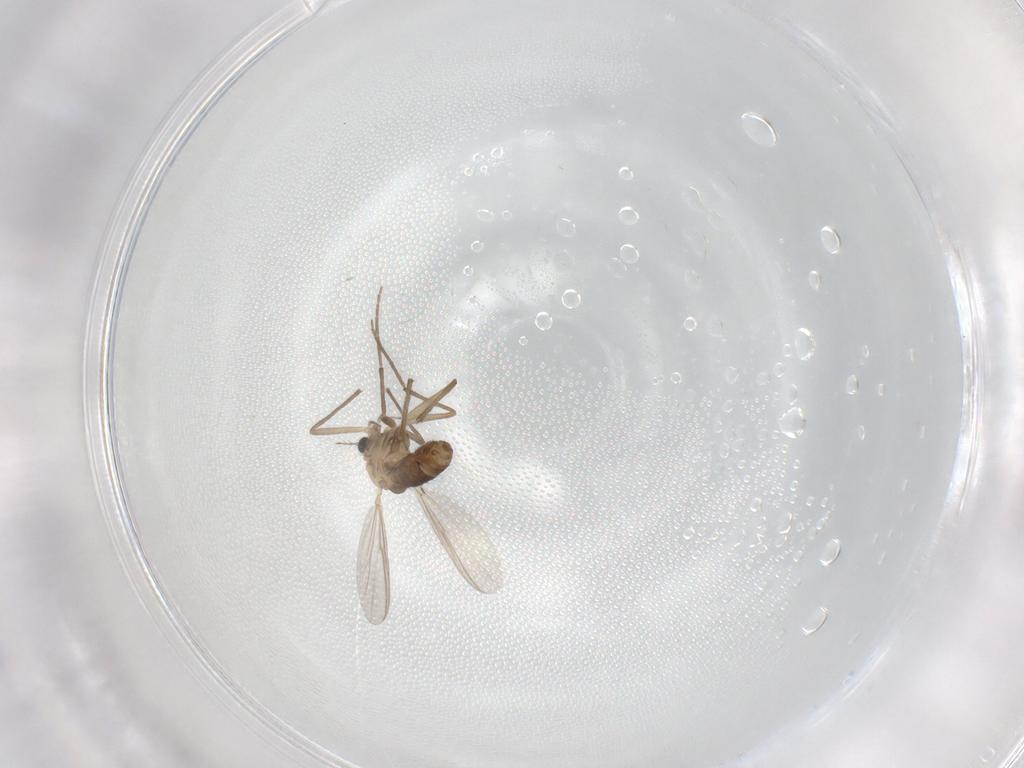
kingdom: Animalia
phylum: Arthropoda
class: Insecta
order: Diptera
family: Chironomidae
